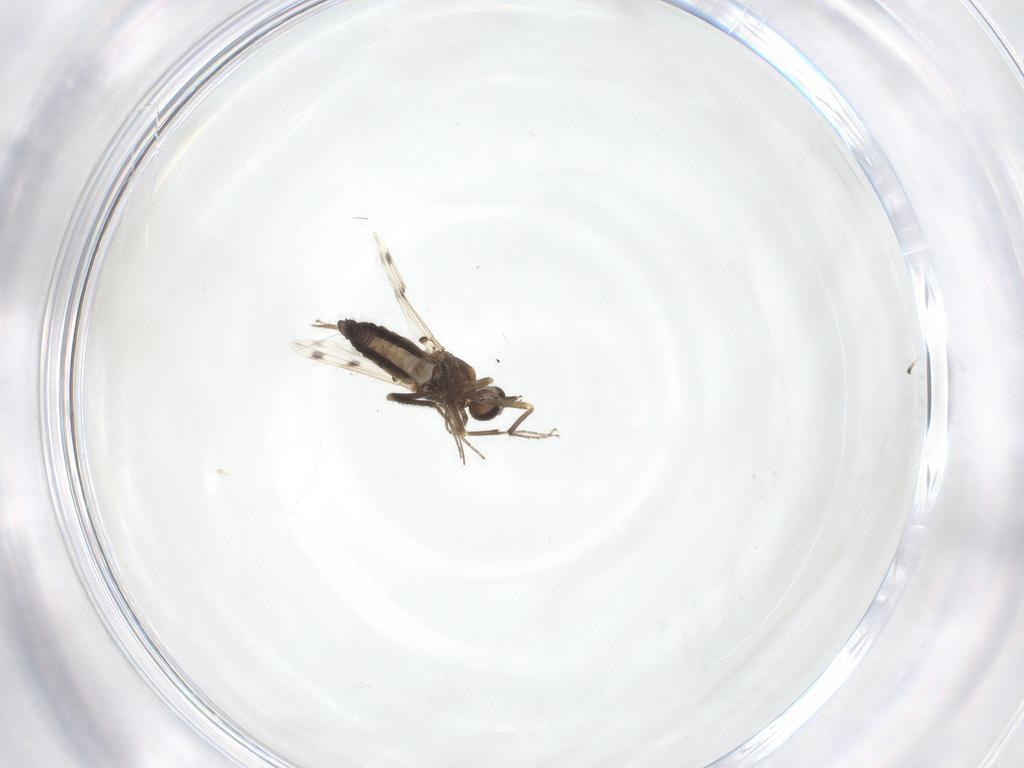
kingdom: Animalia
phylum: Arthropoda
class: Insecta
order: Diptera
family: Ceratopogonidae
